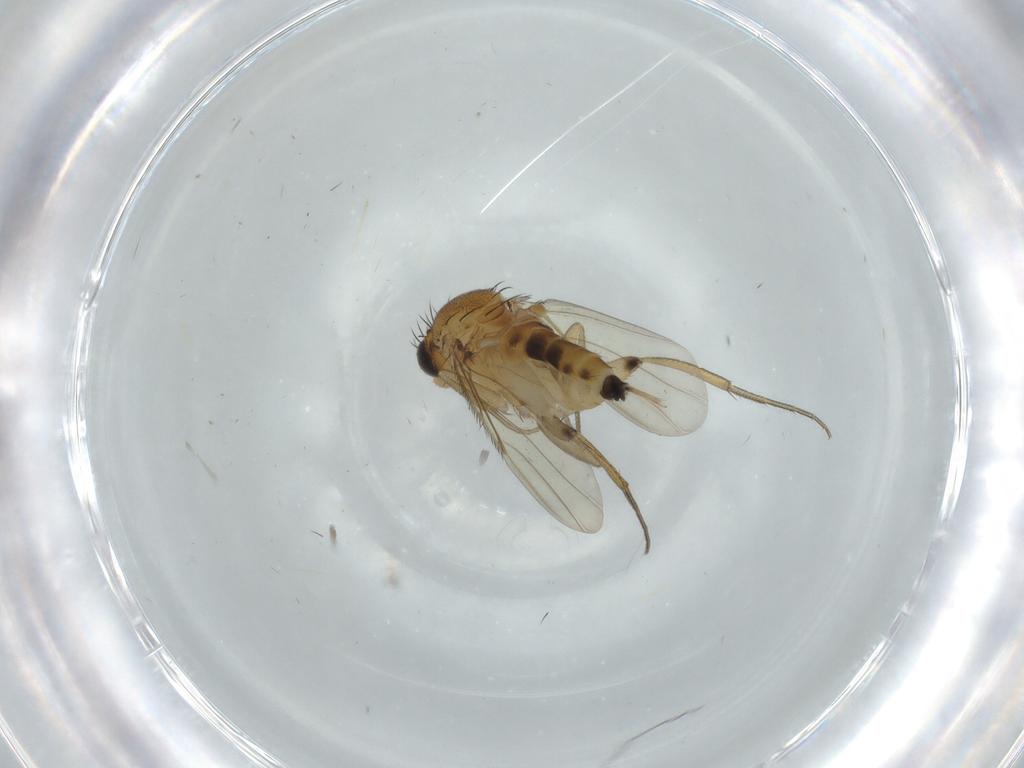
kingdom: Animalia
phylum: Arthropoda
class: Insecta
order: Diptera
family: Phoridae
